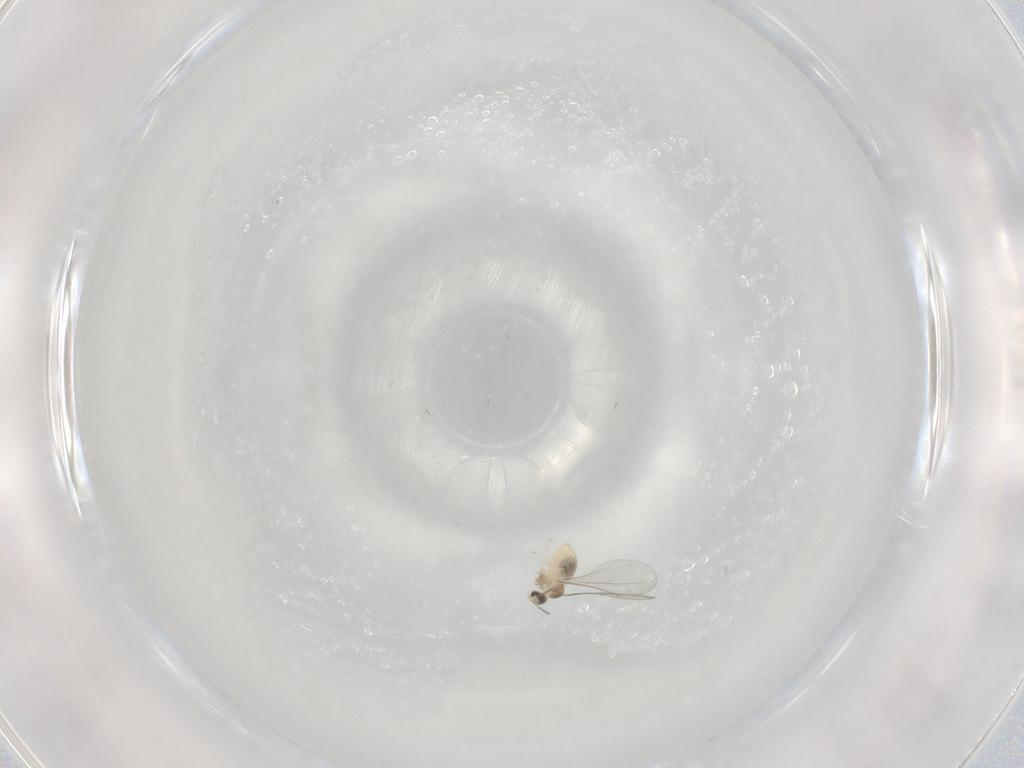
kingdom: Animalia
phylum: Arthropoda
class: Insecta
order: Diptera
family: Cecidomyiidae
